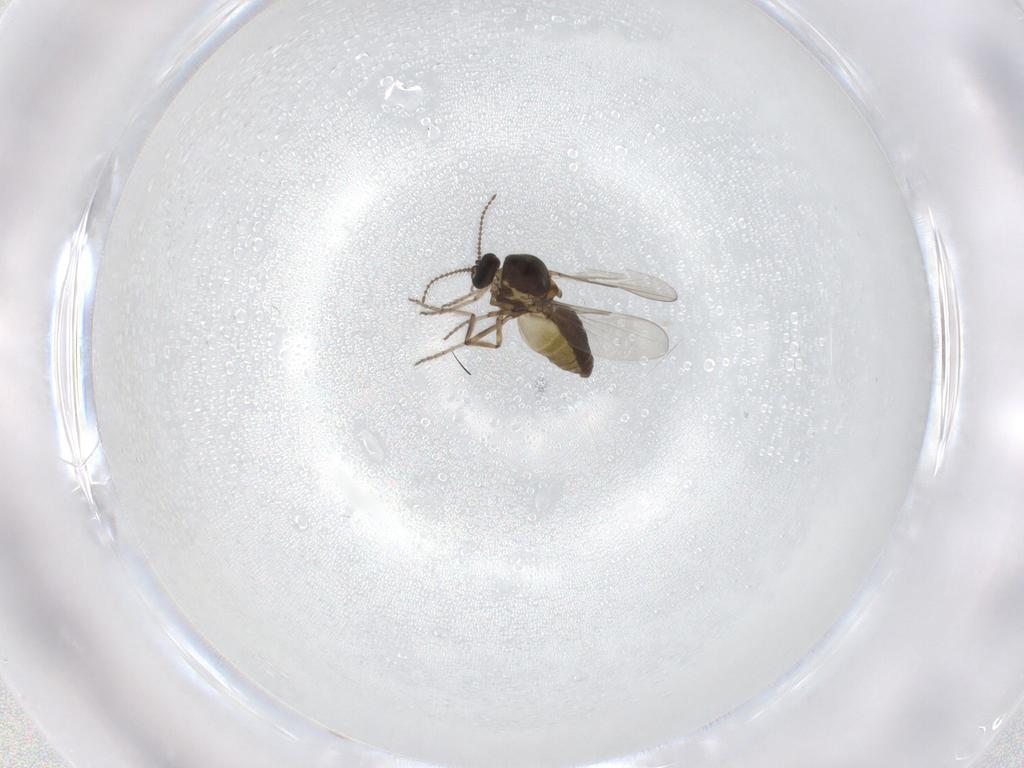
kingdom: Animalia
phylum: Arthropoda
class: Insecta
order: Diptera
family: Ceratopogonidae
